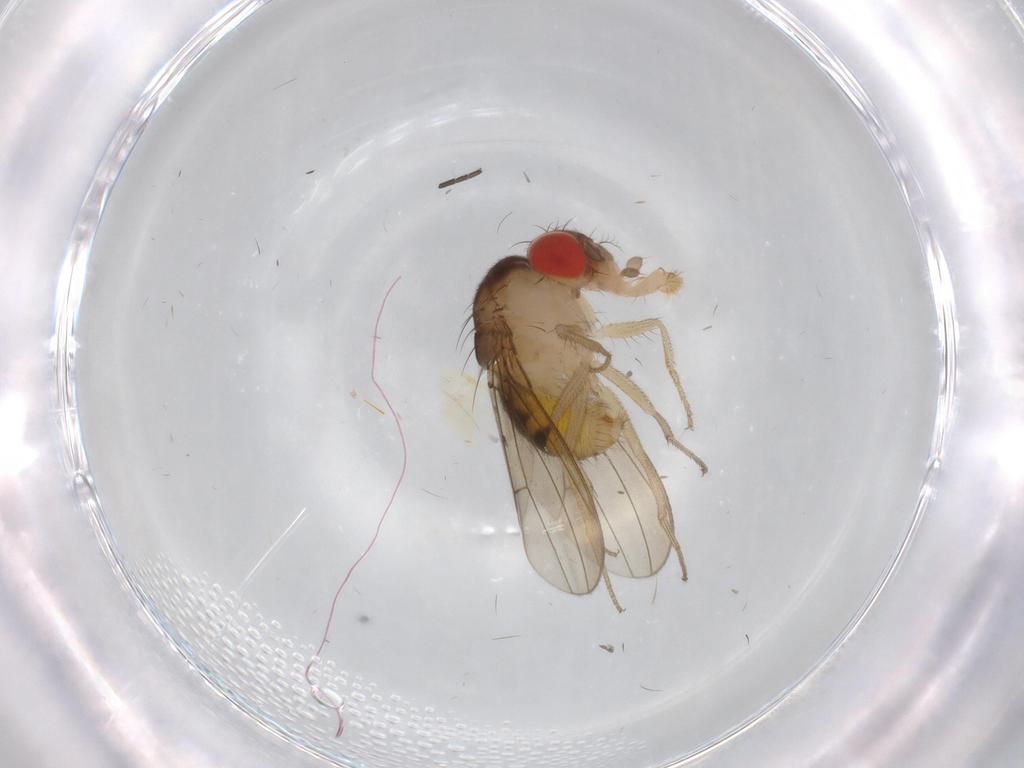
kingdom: Animalia
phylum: Arthropoda
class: Insecta
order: Diptera
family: Drosophilidae
